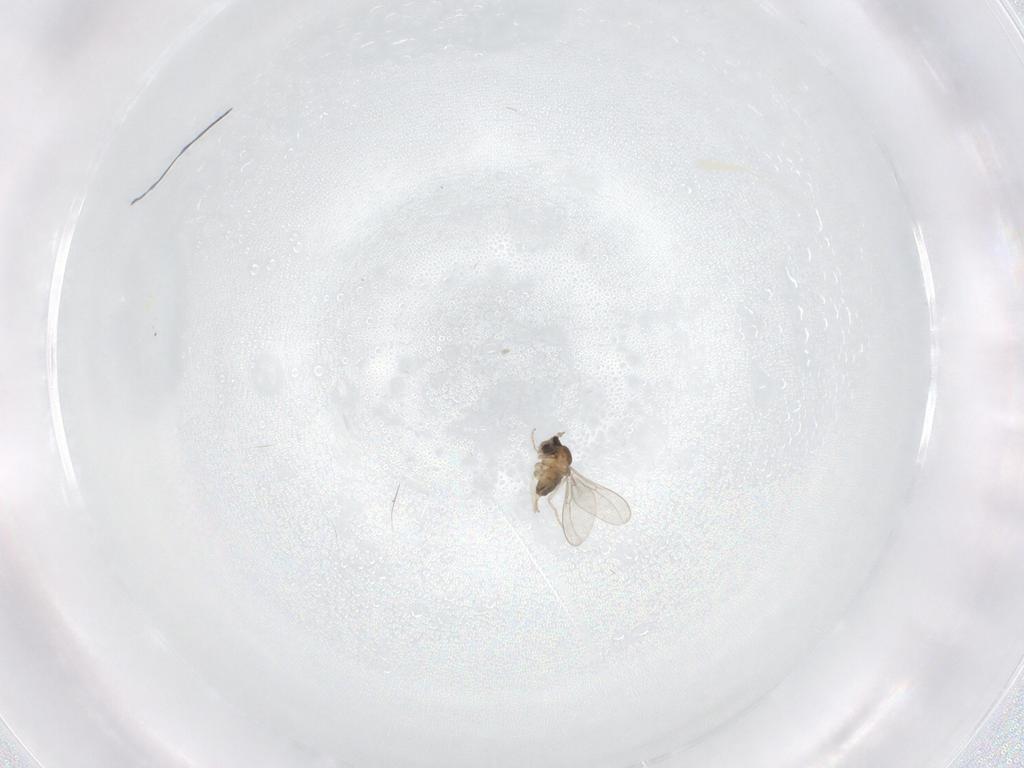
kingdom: Animalia
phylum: Arthropoda
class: Insecta
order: Diptera
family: Cecidomyiidae
